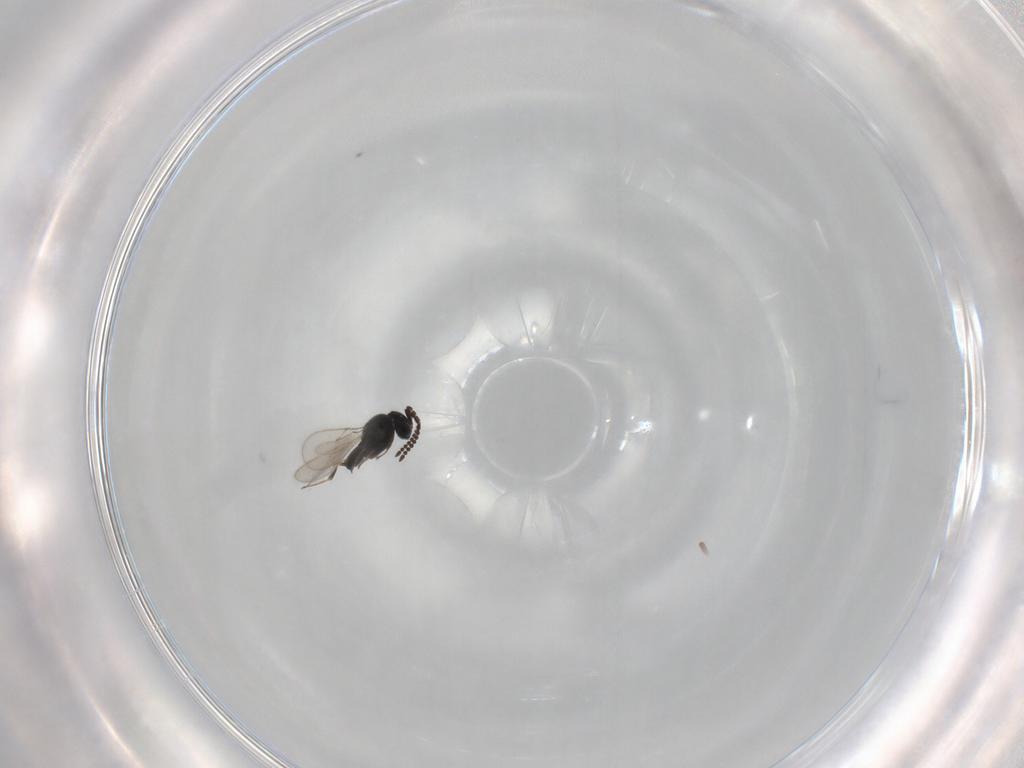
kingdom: Animalia
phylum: Arthropoda
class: Insecta
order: Hymenoptera
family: Scelionidae
